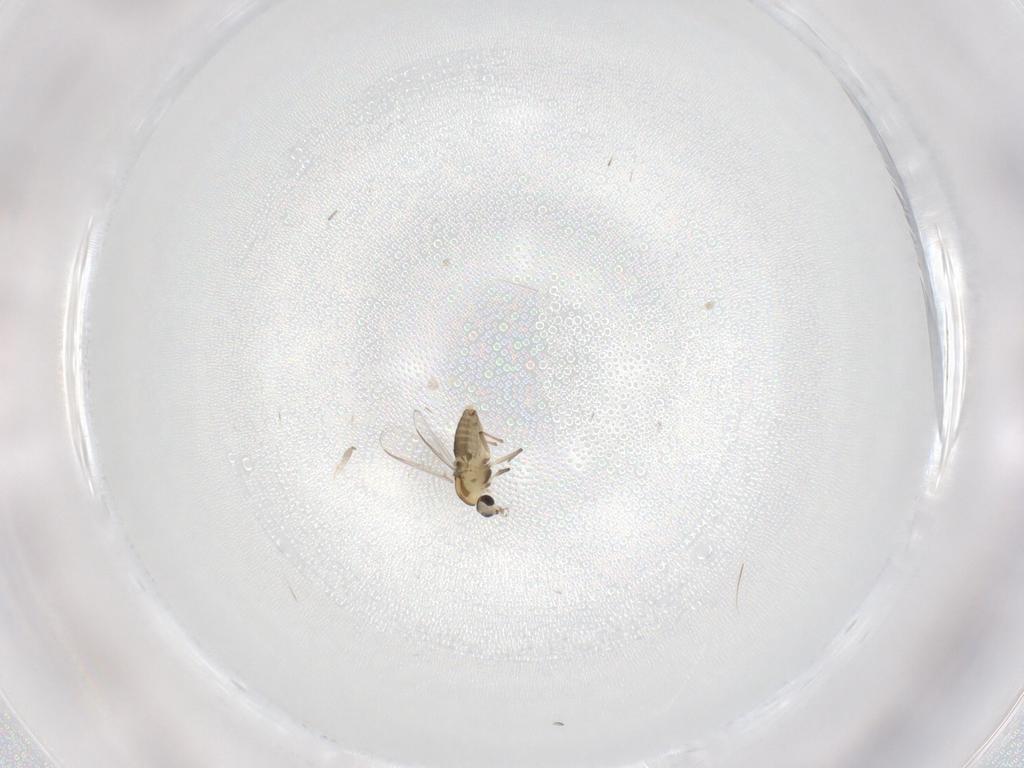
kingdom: Animalia
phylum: Arthropoda
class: Insecta
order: Diptera
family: Chironomidae
